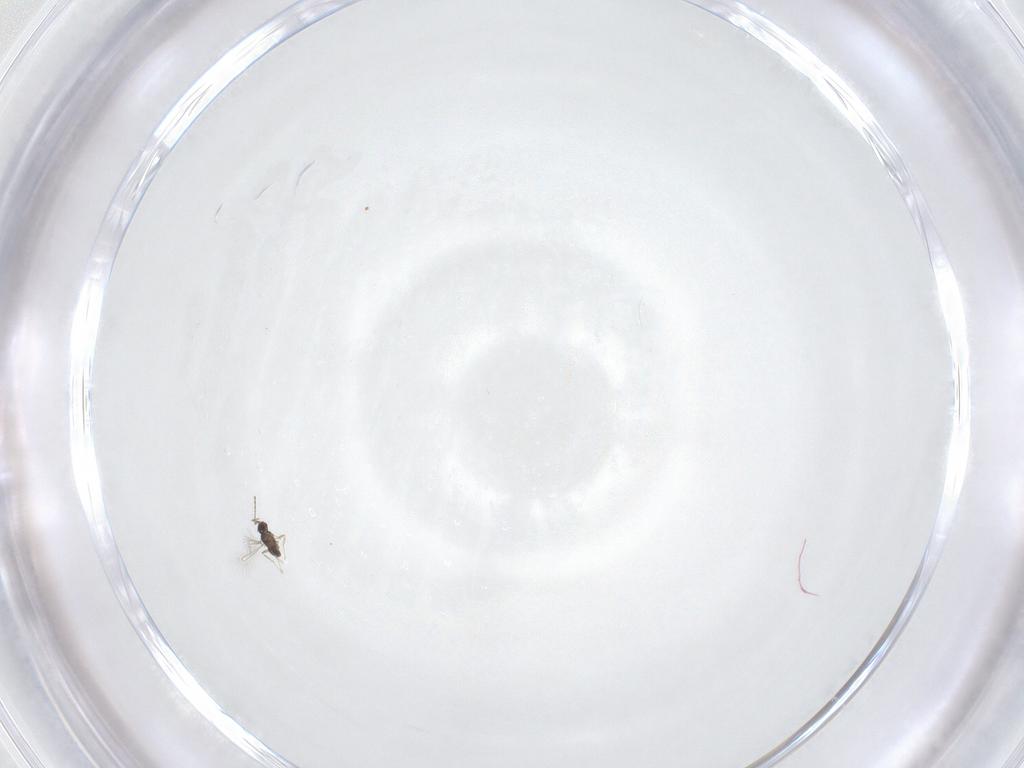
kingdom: Animalia
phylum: Arthropoda
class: Insecta
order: Hymenoptera
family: Mymaridae
